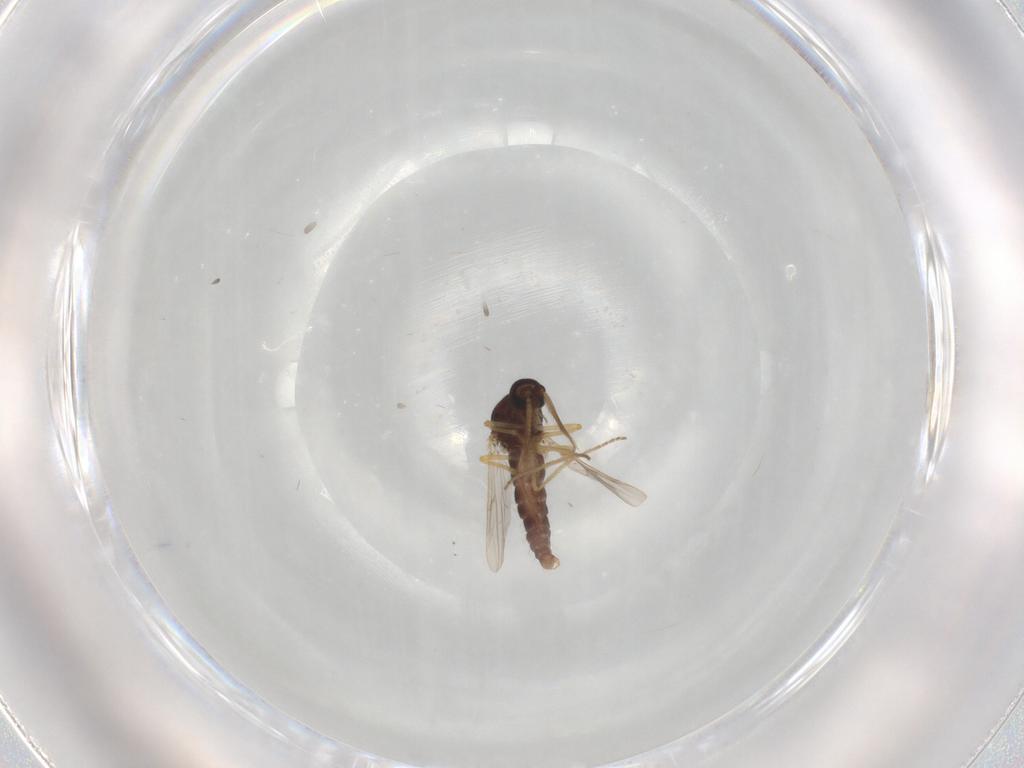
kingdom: Animalia
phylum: Arthropoda
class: Insecta
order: Diptera
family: Ceratopogonidae
